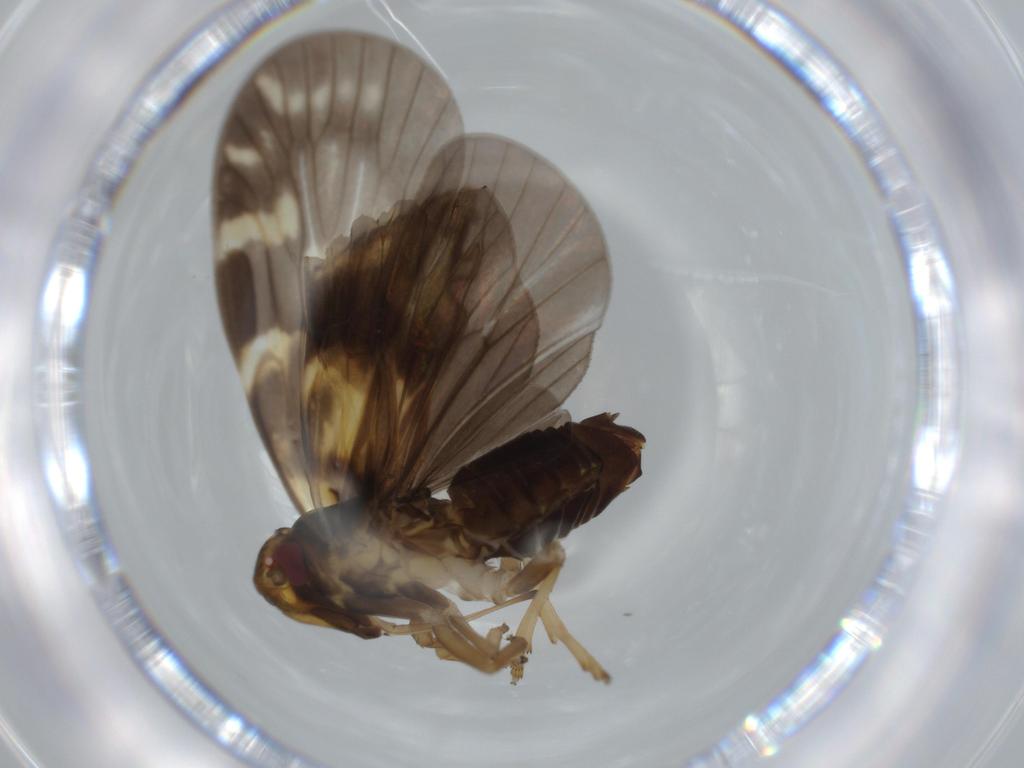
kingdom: Animalia
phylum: Arthropoda
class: Insecta
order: Hemiptera
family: Cixiidae
